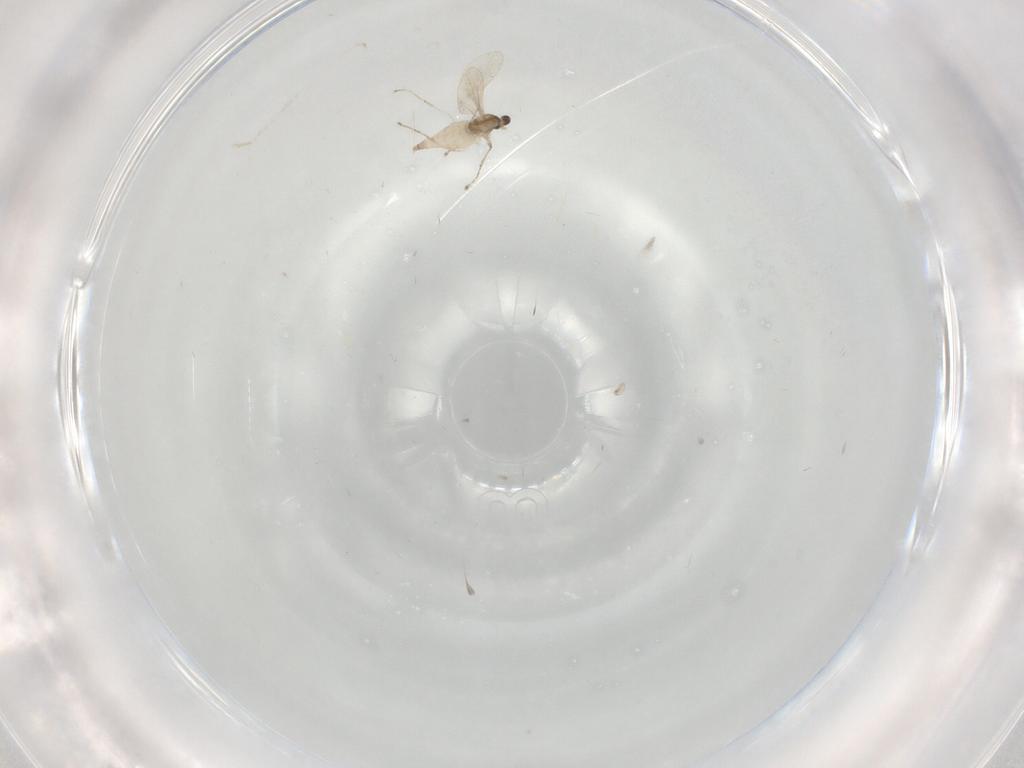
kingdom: Animalia
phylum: Arthropoda
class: Insecta
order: Diptera
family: Cecidomyiidae
